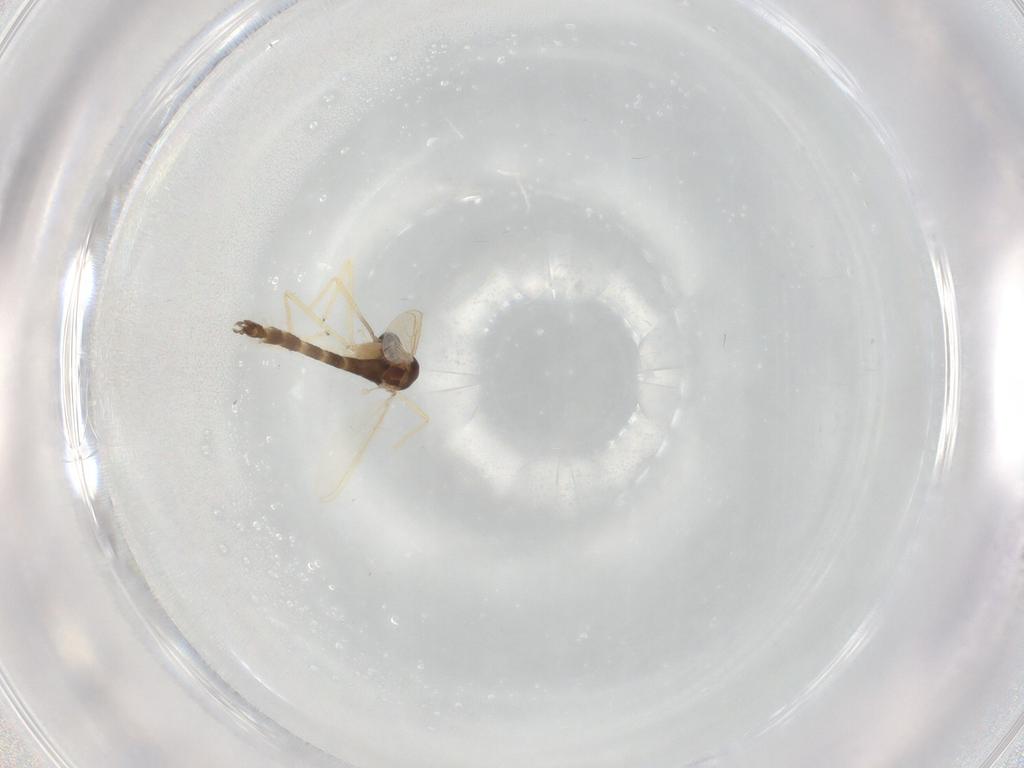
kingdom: Animalia
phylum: Arthropoda
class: Insecta
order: Diptera
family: Chironomidae
